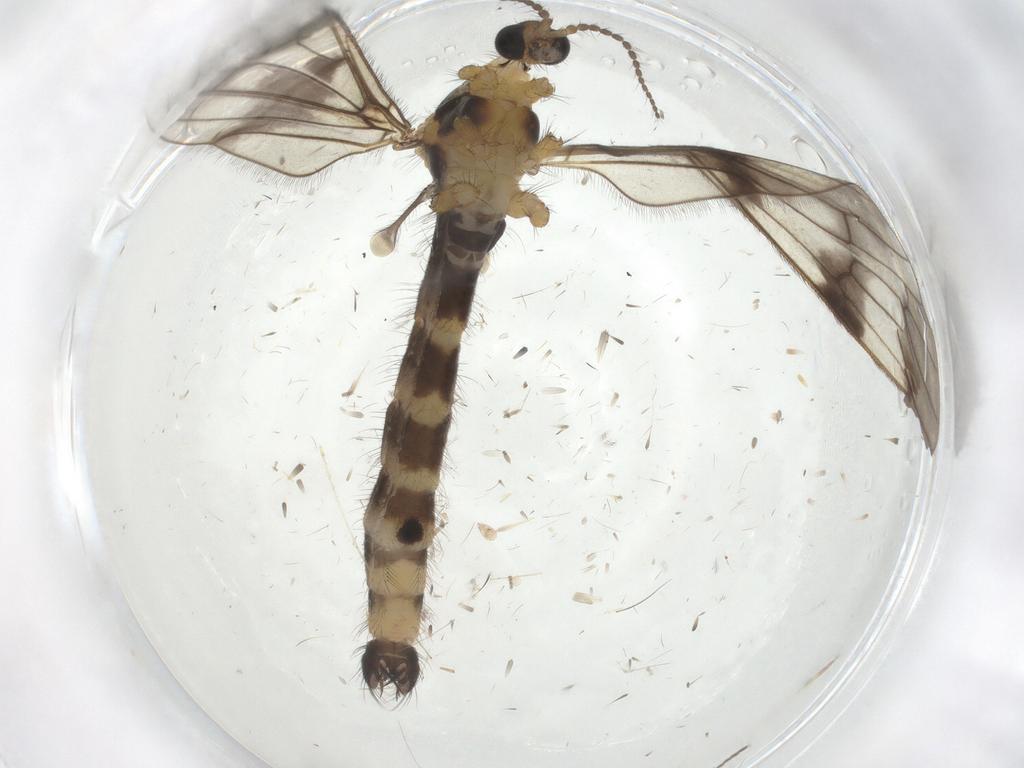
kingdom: Animalia
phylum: Arthropoda
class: Insecta
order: Diptera
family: Limoniidae
